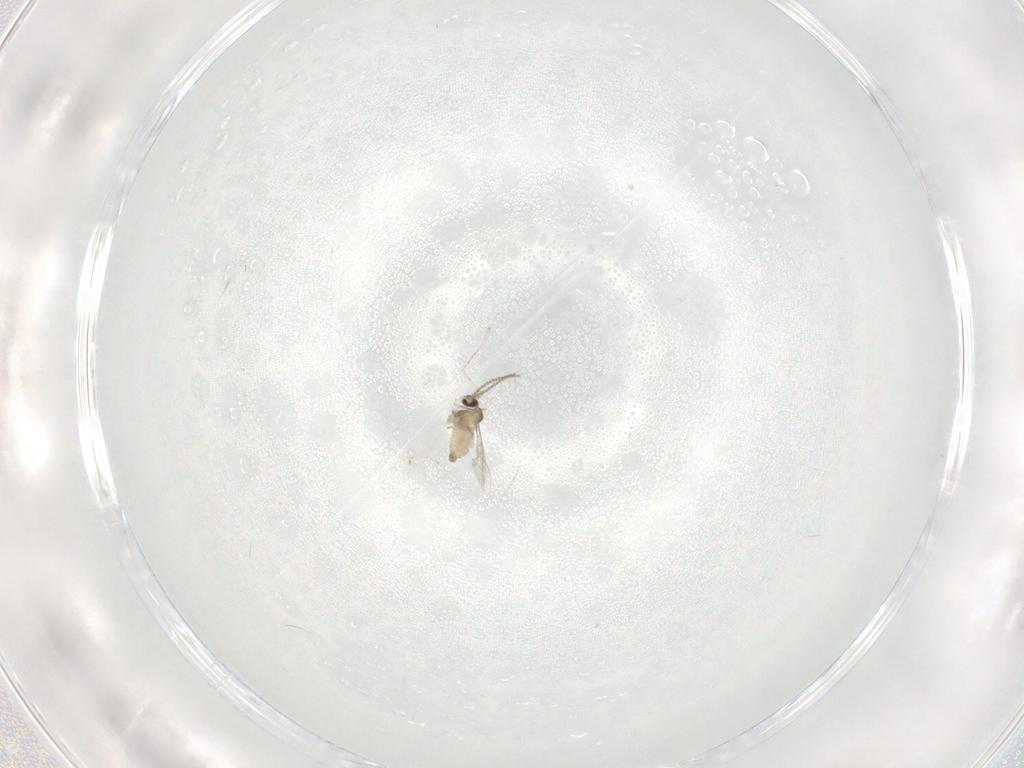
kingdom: Animalia
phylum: Arthropoda
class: Insecta
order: Diptera
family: Cecidomyiidae
